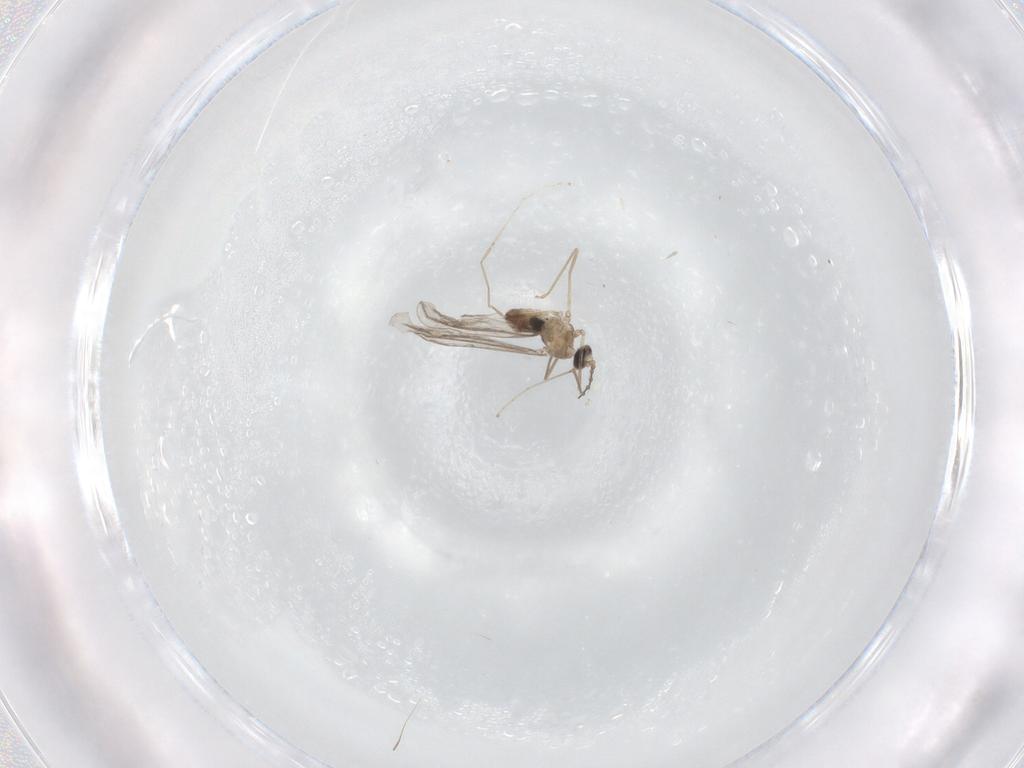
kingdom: Animalia
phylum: Arthropoda
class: Insecta
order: Diptera
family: Cecidomyiidae
